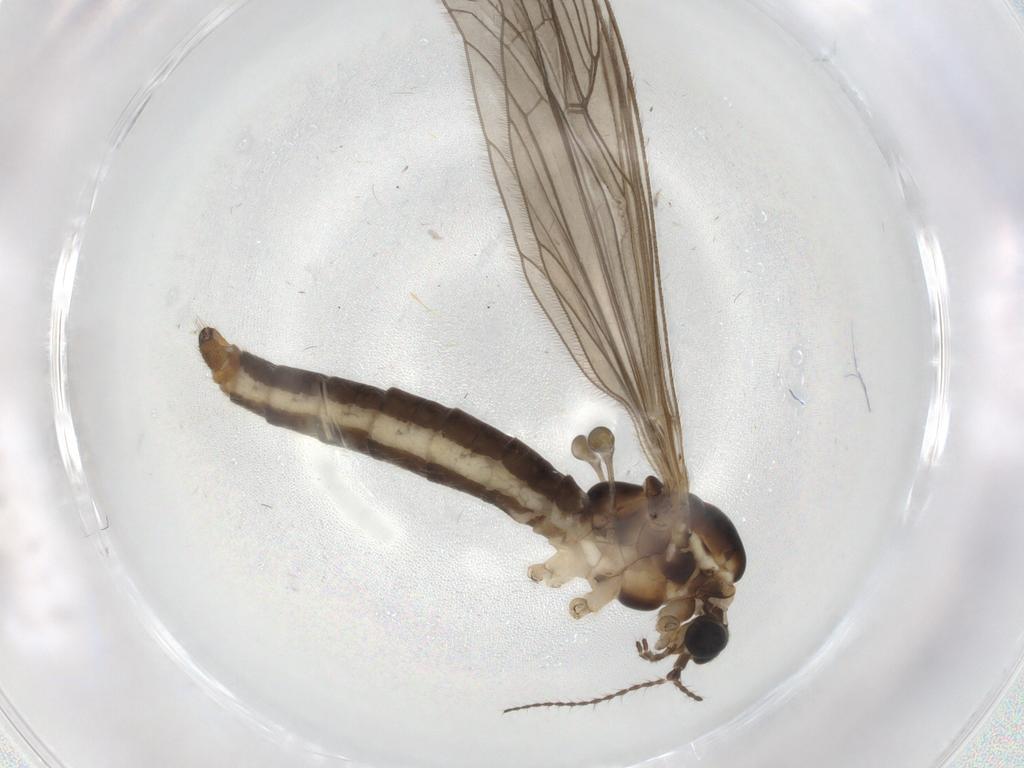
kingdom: Animalia
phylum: Arthropoda
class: Insecta
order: Diptera
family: Limoniidae
